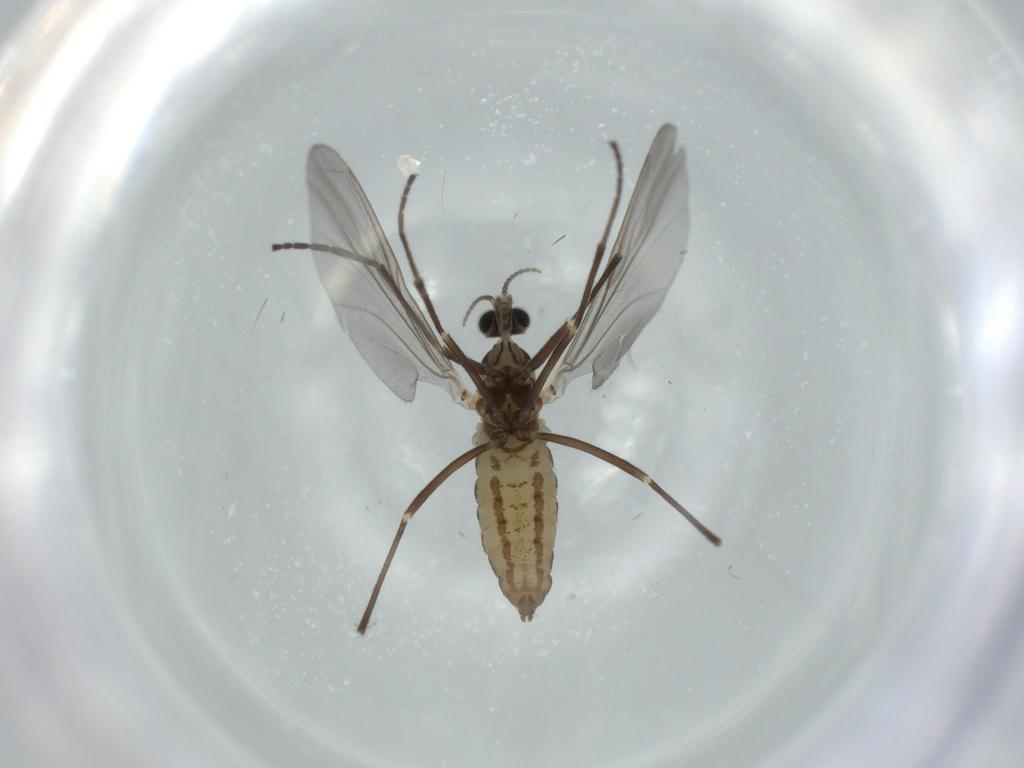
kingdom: Animalia
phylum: Arthropoda
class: Insecta
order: Diptera
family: Cecidomyiidae
